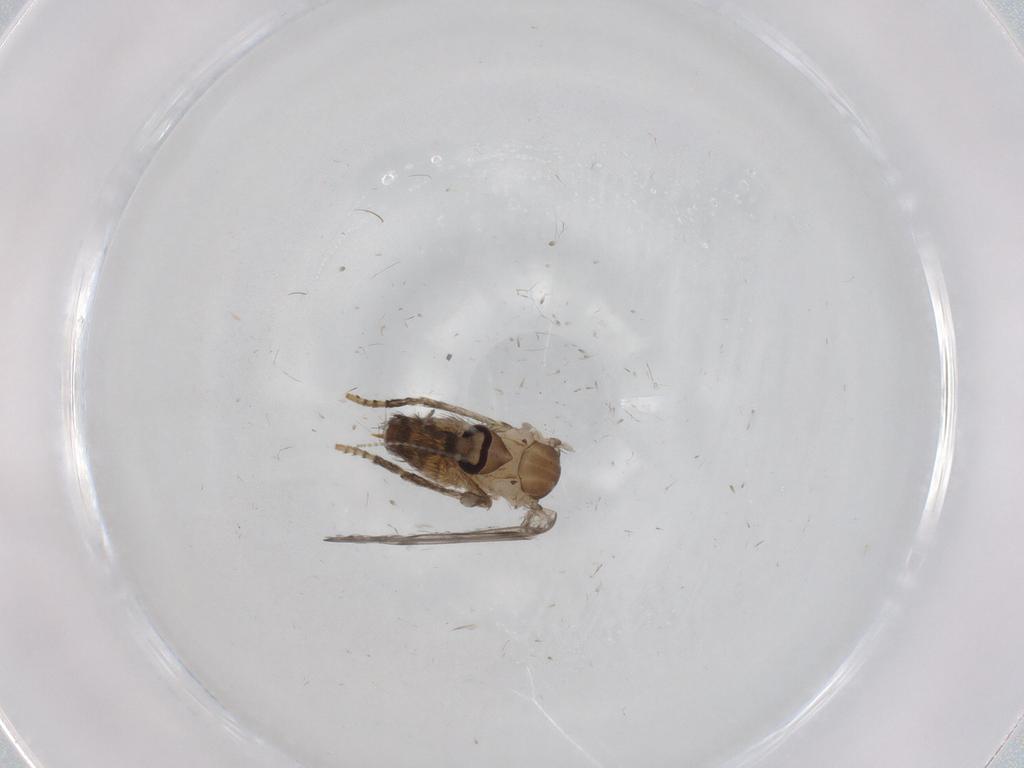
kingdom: Animalia
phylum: Arthropoda
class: Insecta
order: Diptera
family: Psychodidae
